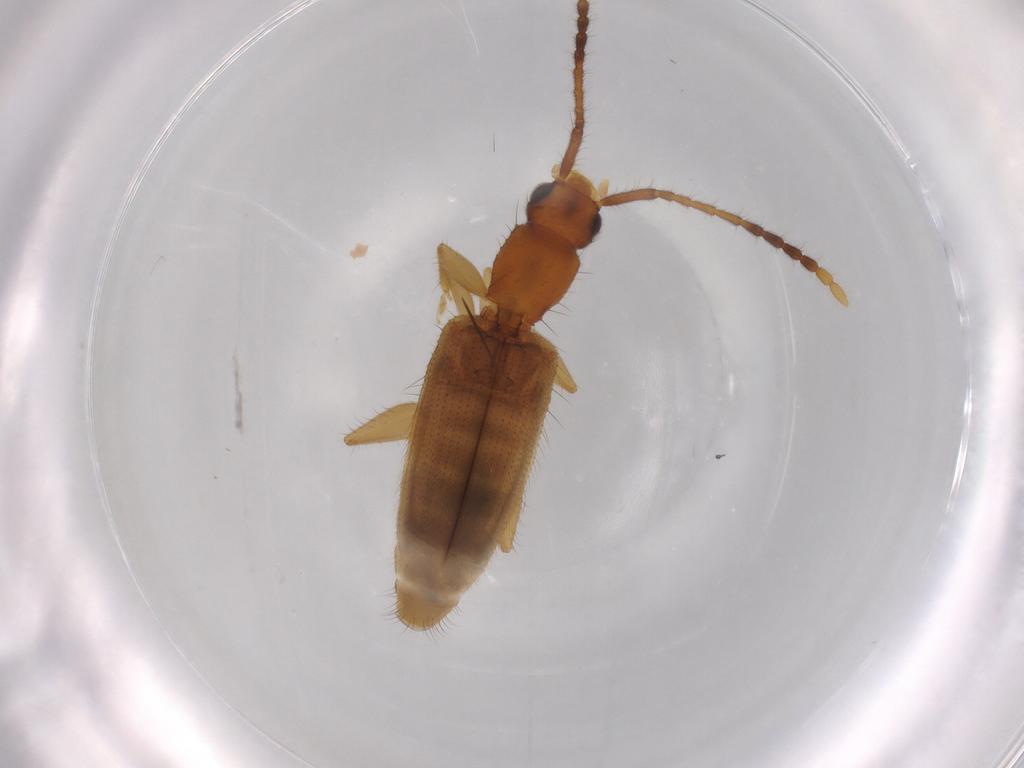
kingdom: Animalia
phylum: Arthropoda
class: Insecta
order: Coleoptera
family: Silvanidae
